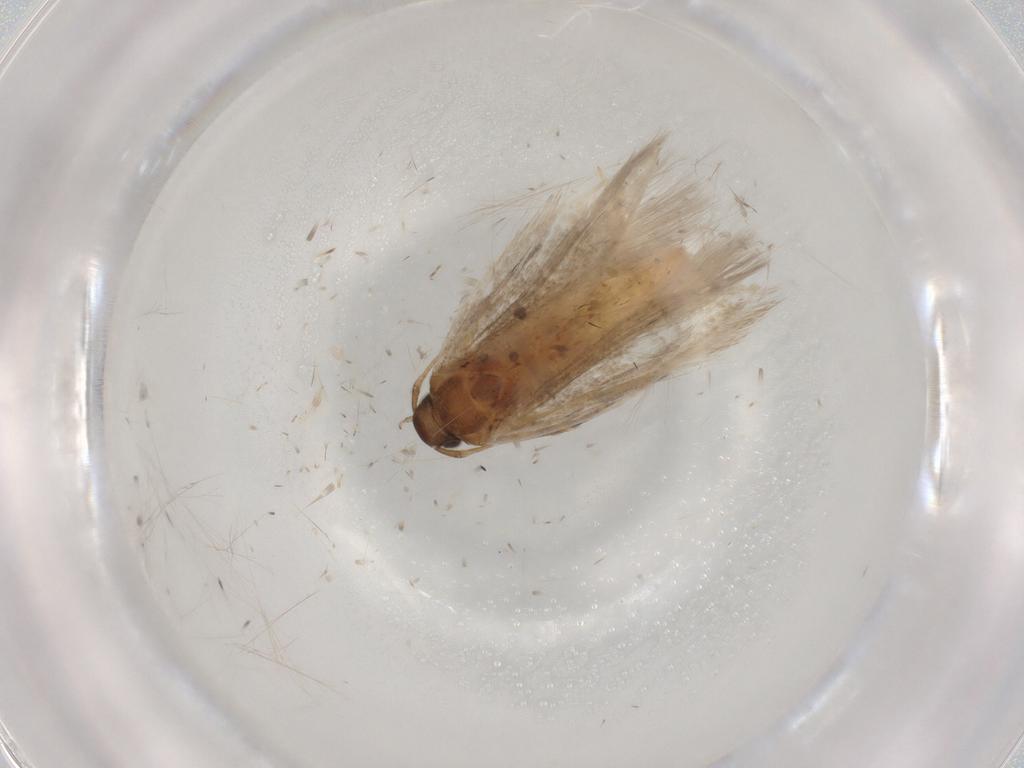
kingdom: Animalia
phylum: Arthropoda
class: Insecta
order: Lepidoptera
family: Gelechiidae
